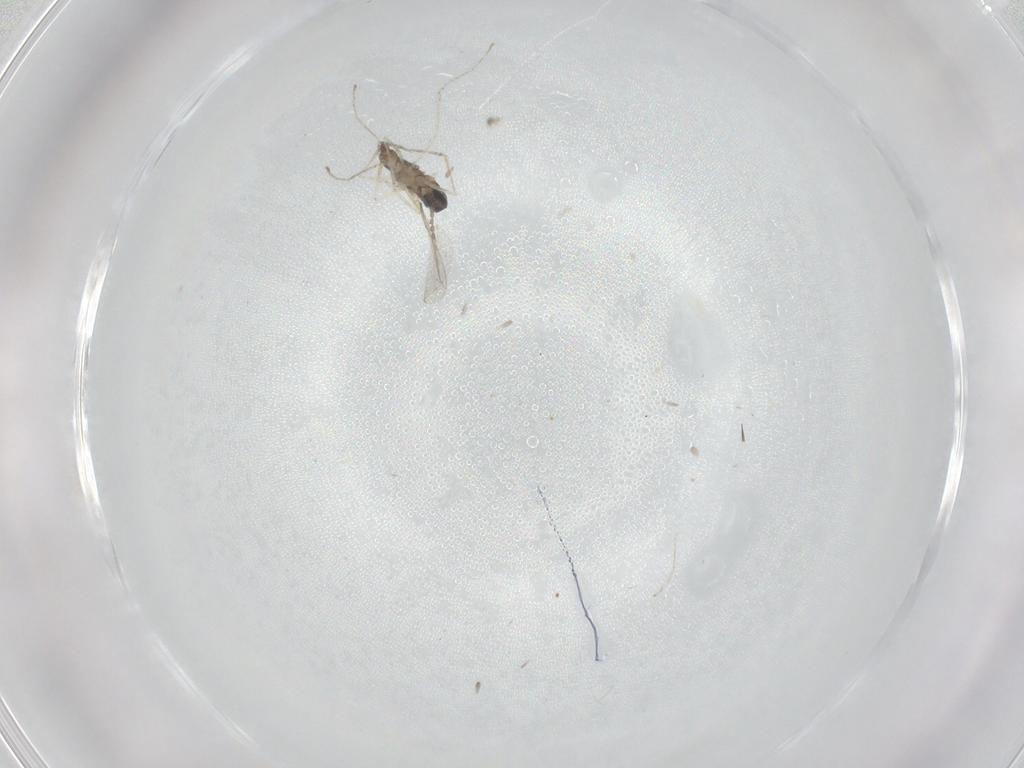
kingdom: Animalia
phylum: Arthropoda
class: Insecta
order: Diptera
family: Cecidomyiidae
